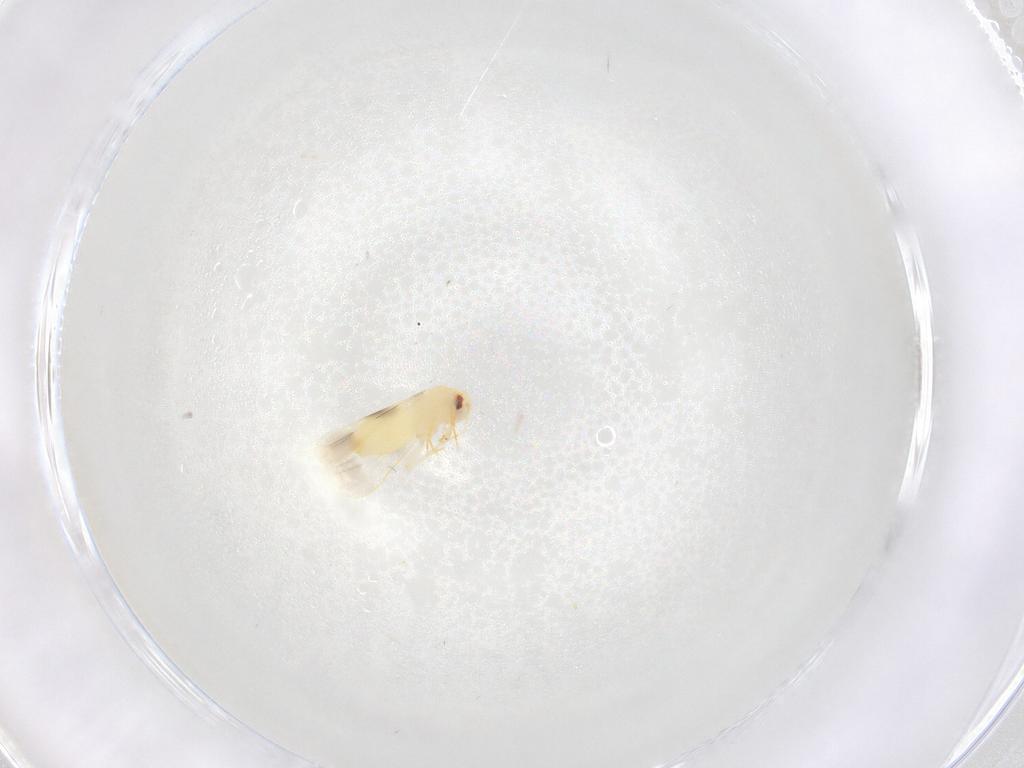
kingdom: Animalia
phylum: Arthropoda
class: Insecta
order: Hemiptera
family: Aleyrodidae
